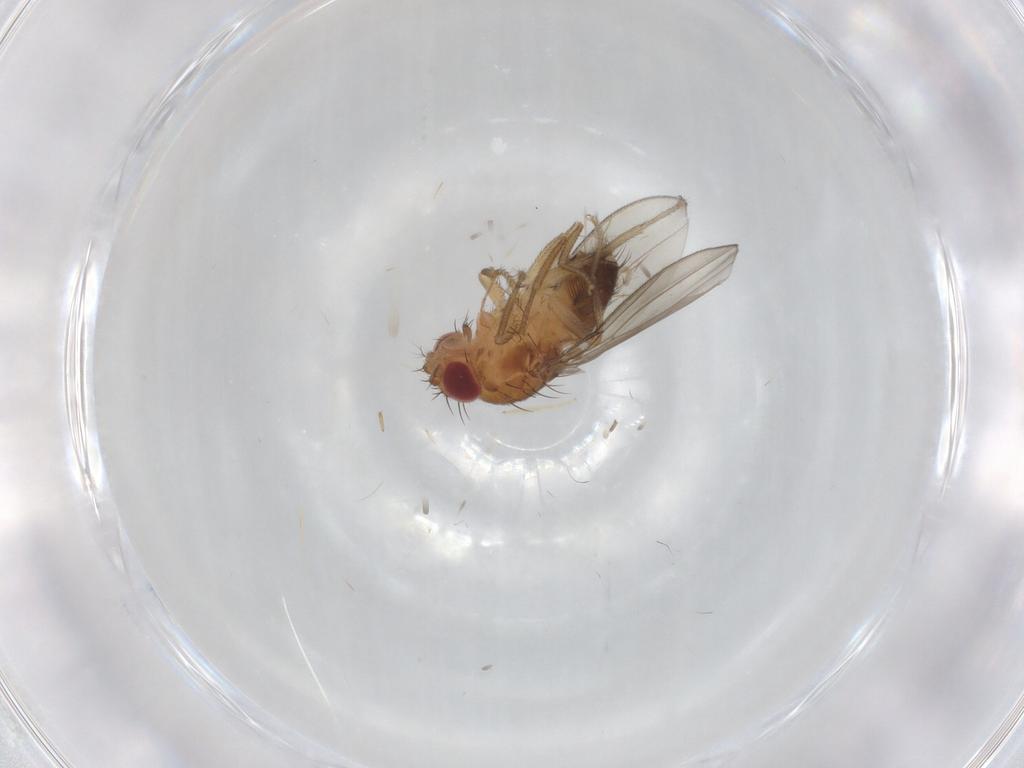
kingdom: Animalia
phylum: Arthropoda
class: Insecta
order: Diptera
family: Drosophilidae
